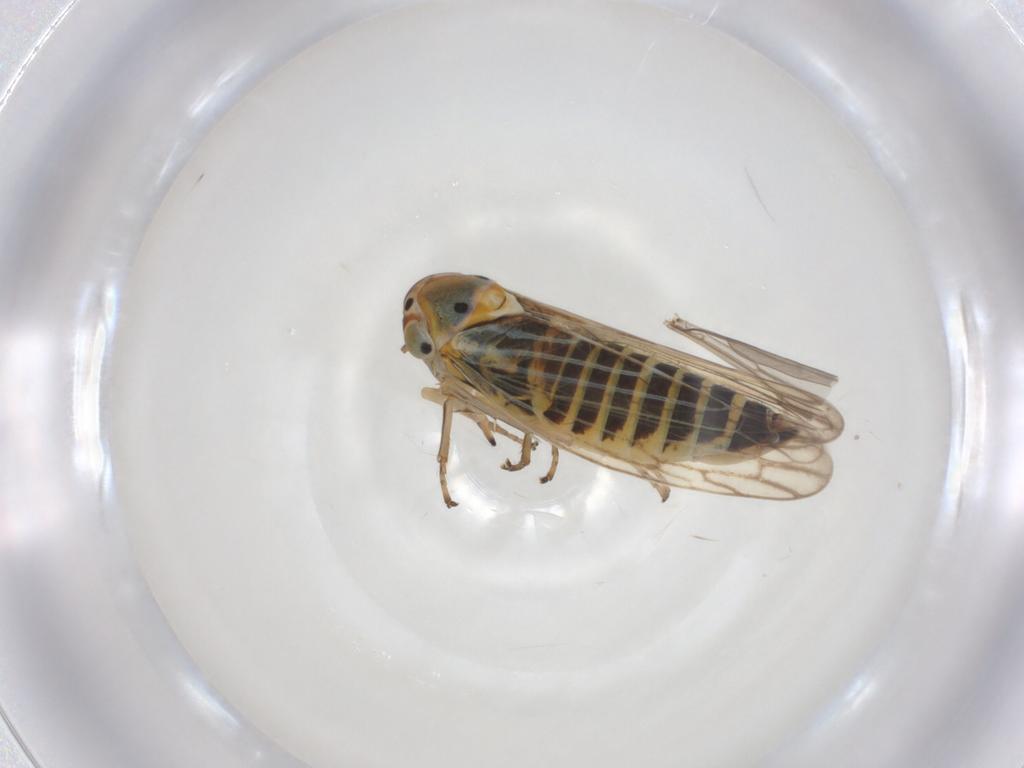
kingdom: Animalia
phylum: Arthropoda
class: Insecta
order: Hemiptera
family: Cicadellidae
